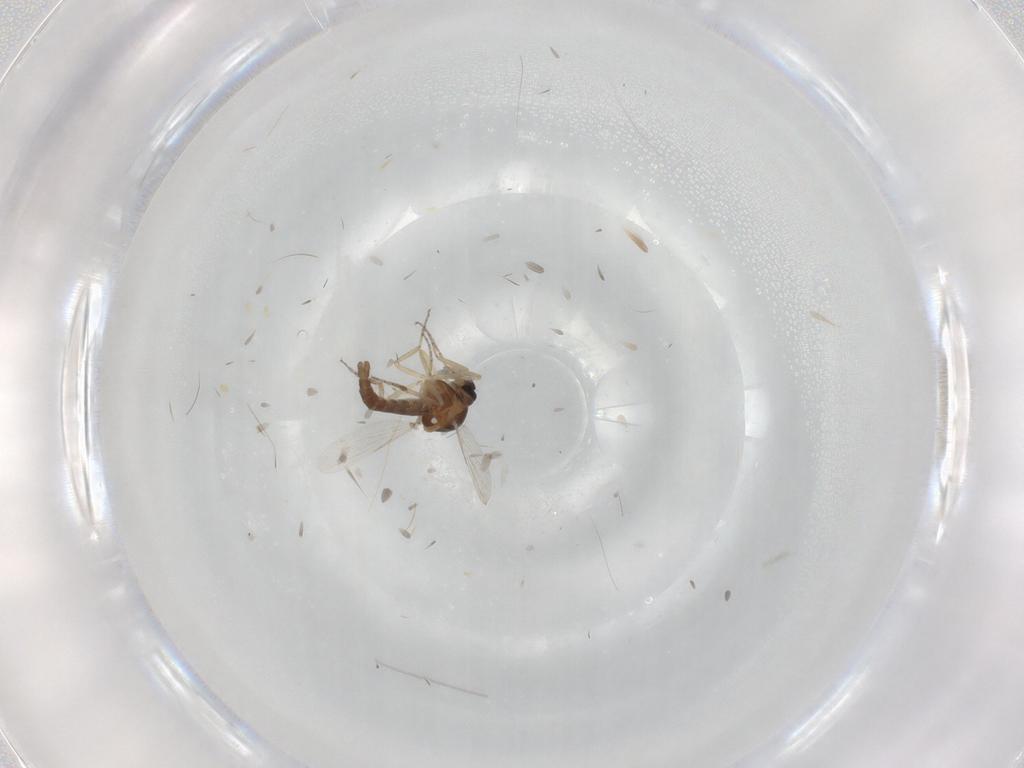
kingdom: Animalia
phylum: Arthropoda
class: Insecta
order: Diptera
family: Ceratopogonidae
